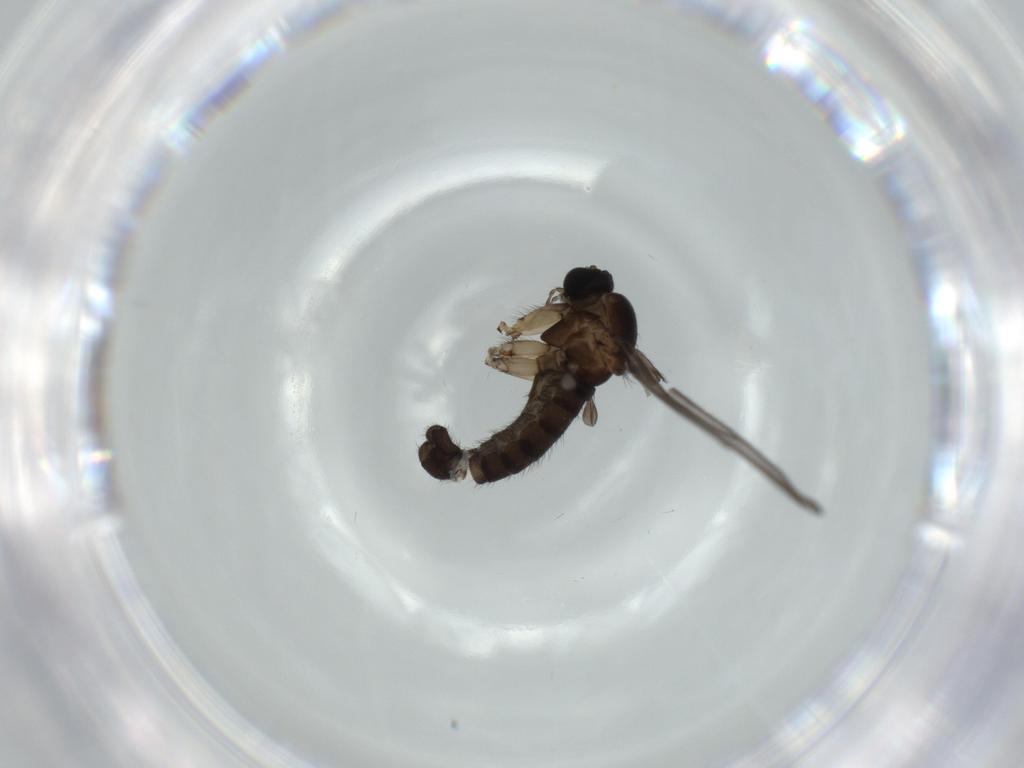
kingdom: Animalia
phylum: Arthropoda
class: Insecta
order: Diptera
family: Sciaridae
